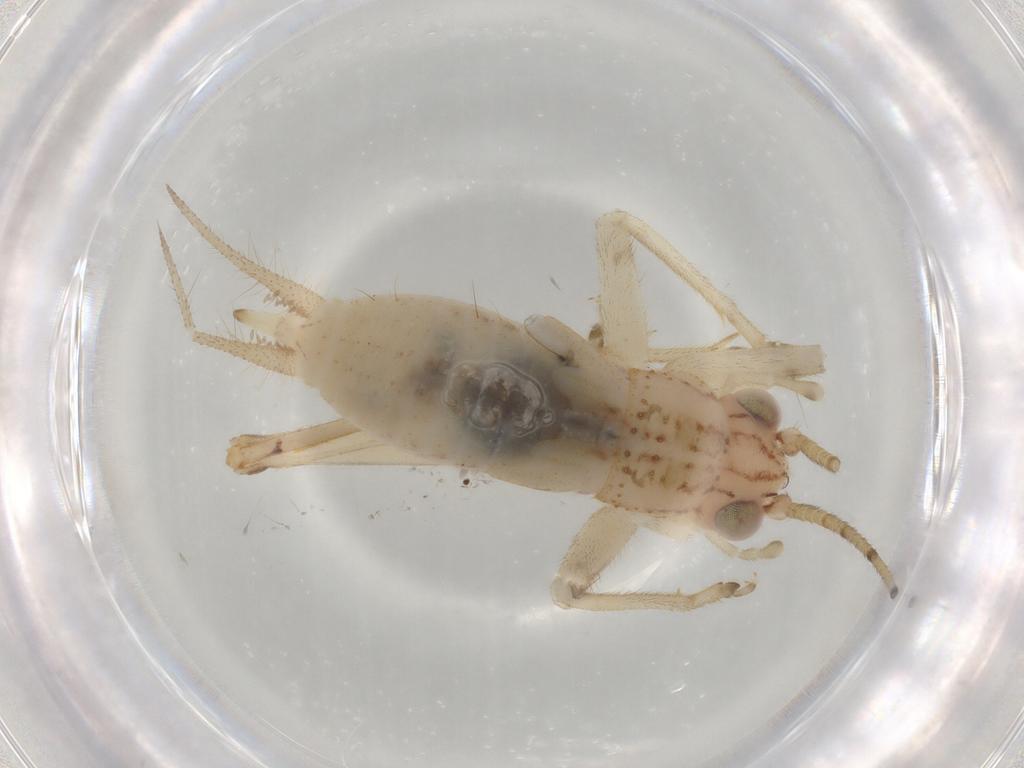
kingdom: Animalia
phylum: Arthropoda
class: Insecta
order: Orthoptera
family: Trigonidiidae
